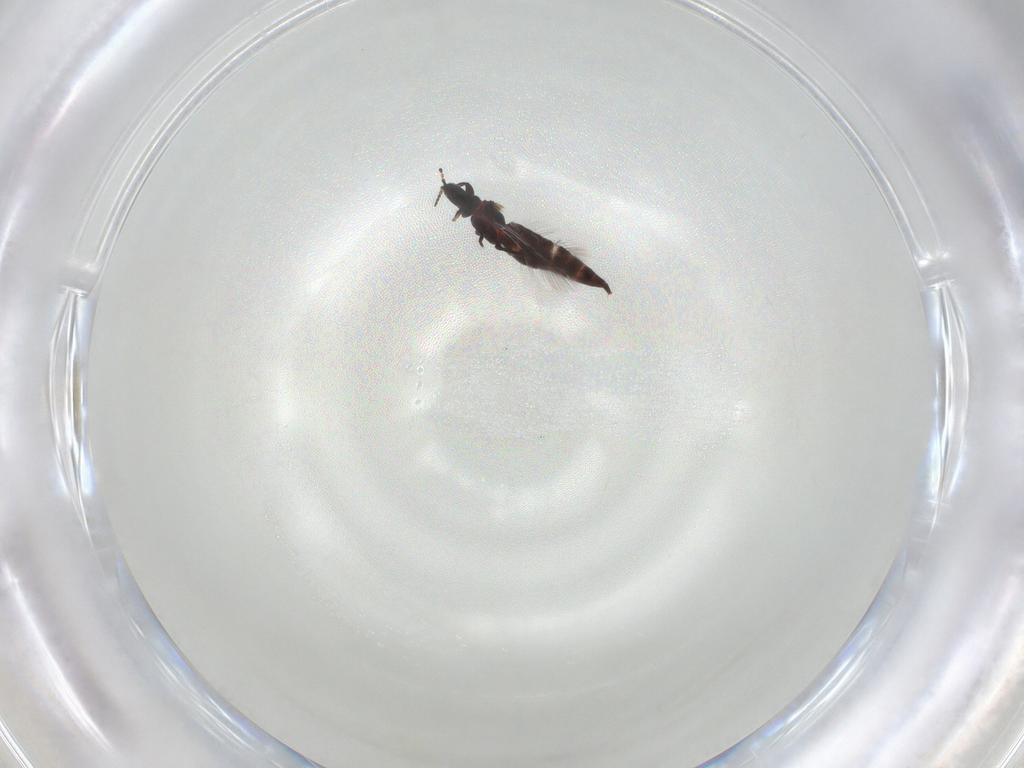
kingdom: Animalia
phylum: Arthropoda
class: Insecta
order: Thysanoptera
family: Phlaeothripidae
